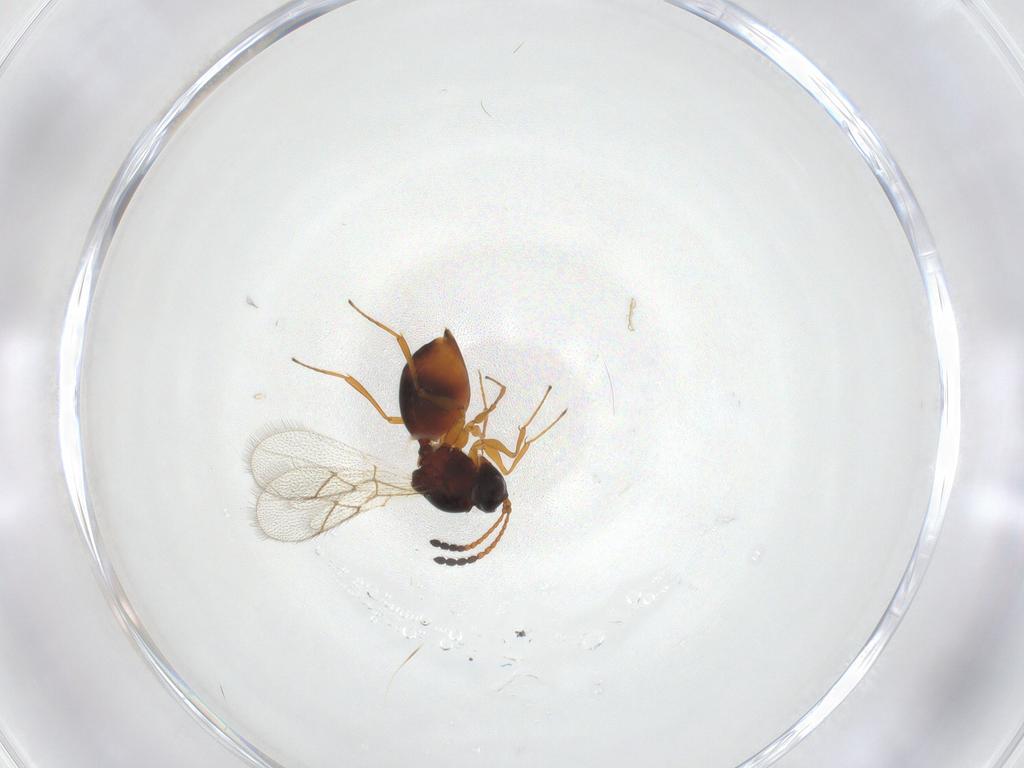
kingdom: Animalia
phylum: Arthropoda
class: Insecta
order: Hymenoptera
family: Figitidae
